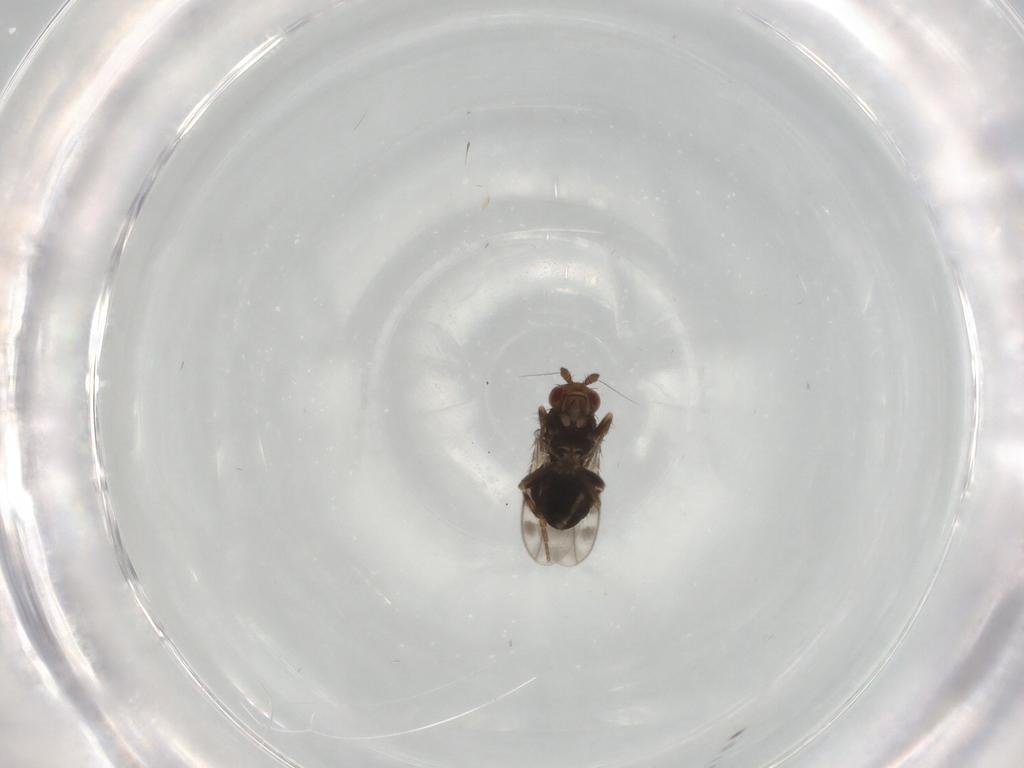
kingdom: Animalia
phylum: Arthropoda
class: Insecta
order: Diptera
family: Sphaeroceridae
